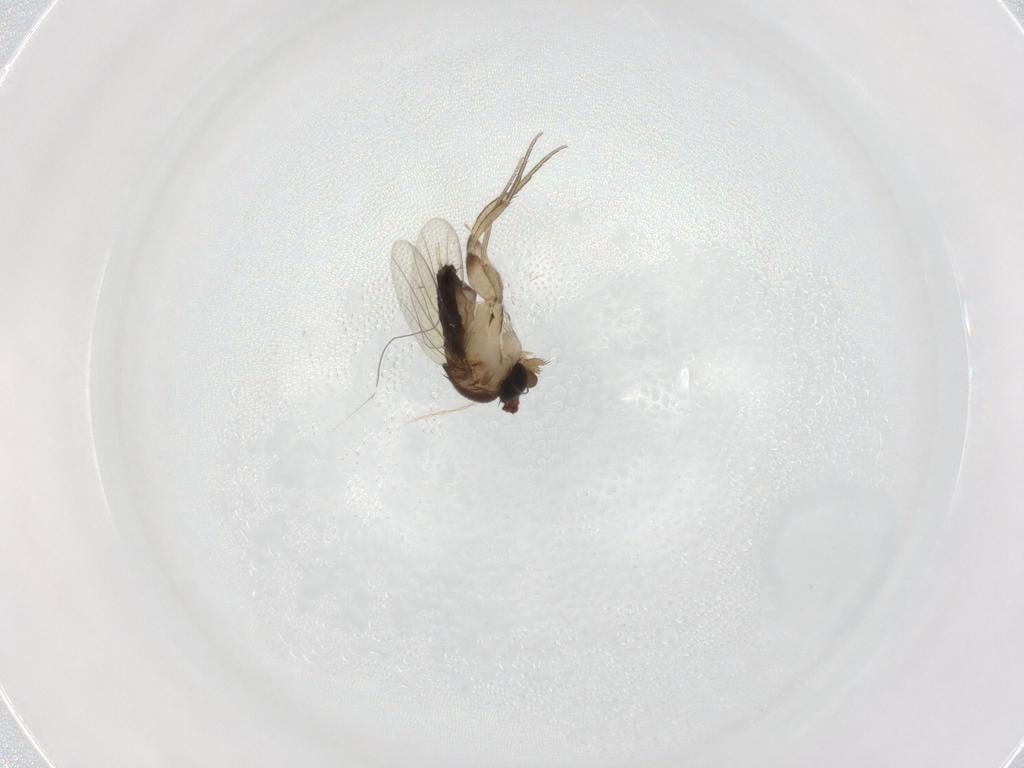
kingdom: Animalia
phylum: Arthropoda
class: Insecta
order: Diptera
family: Phoridae
